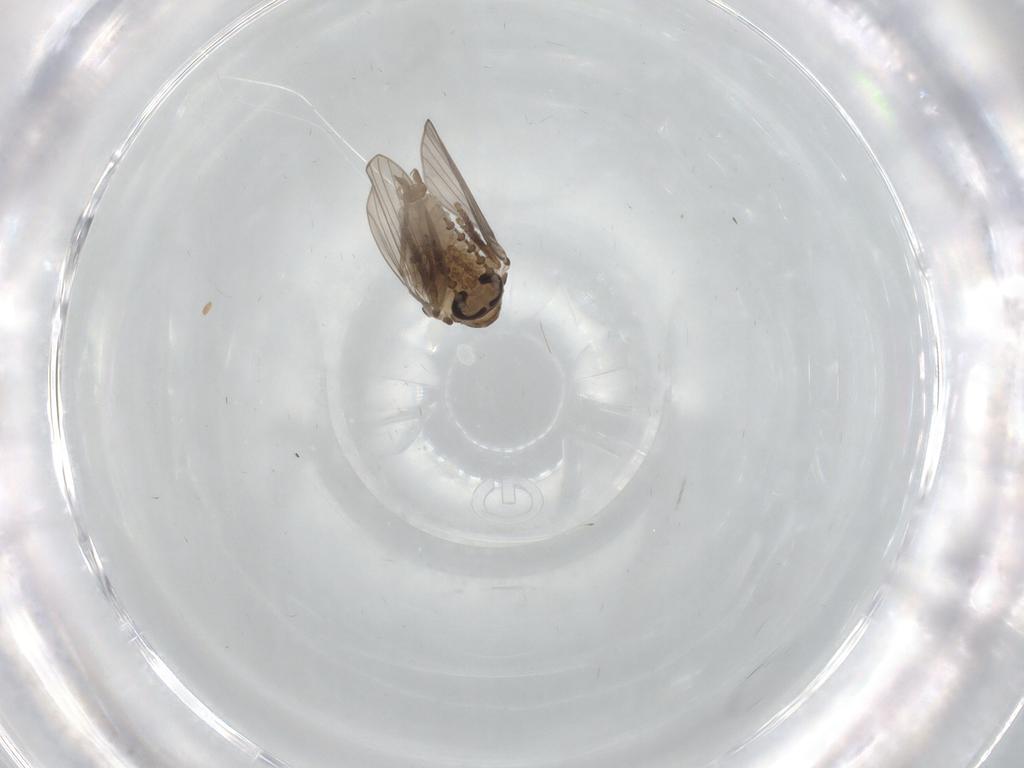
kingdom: Animalia
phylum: Arthropoda
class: Insecta
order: Diptera
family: Psychodidae
